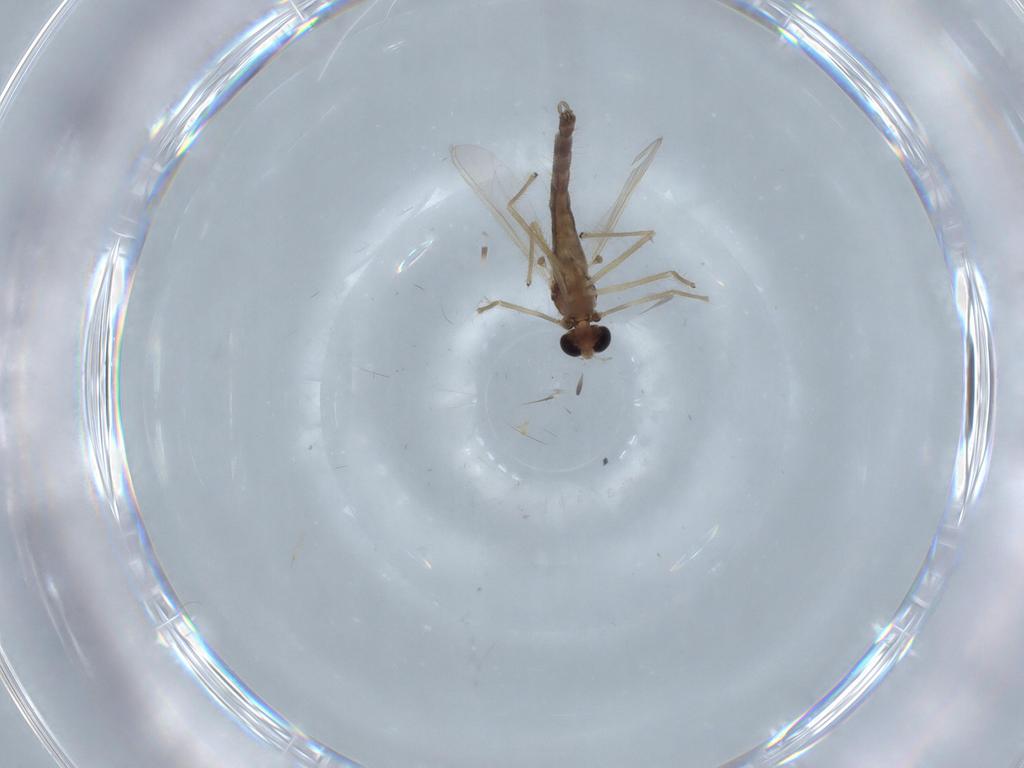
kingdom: Animalia
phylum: Arthropoda
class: Insecta
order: Diptera
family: Chironomidae
